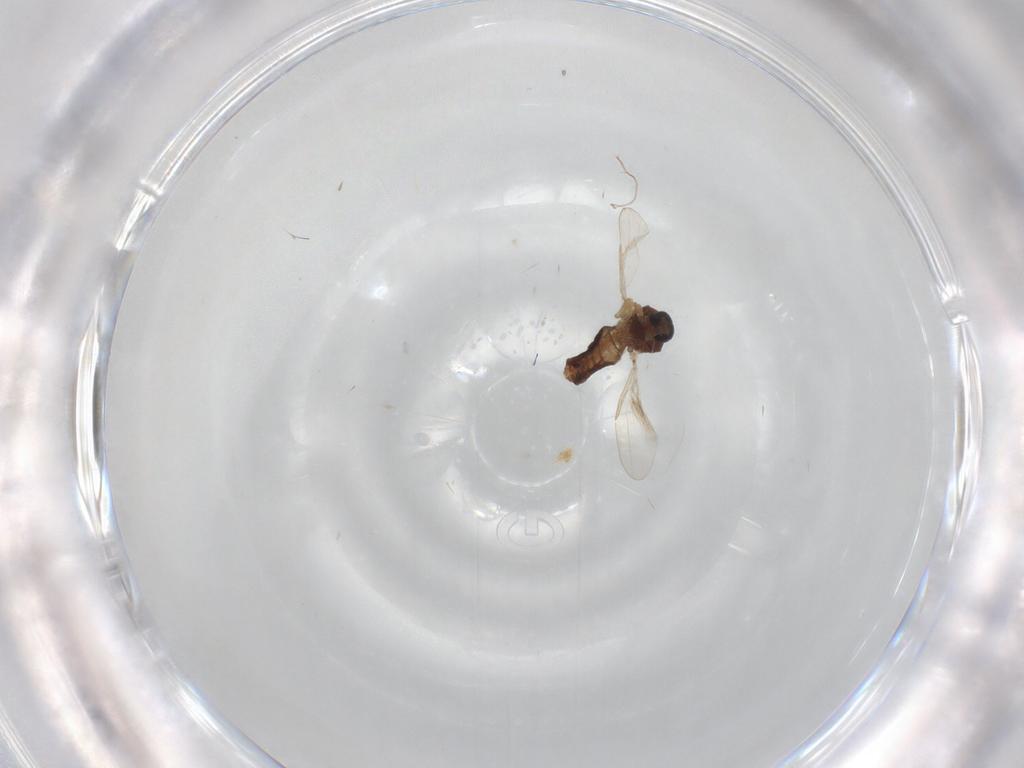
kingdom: Animalia
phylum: Arthropoda
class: Insecta
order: Diptera
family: Ceratopogonidae
